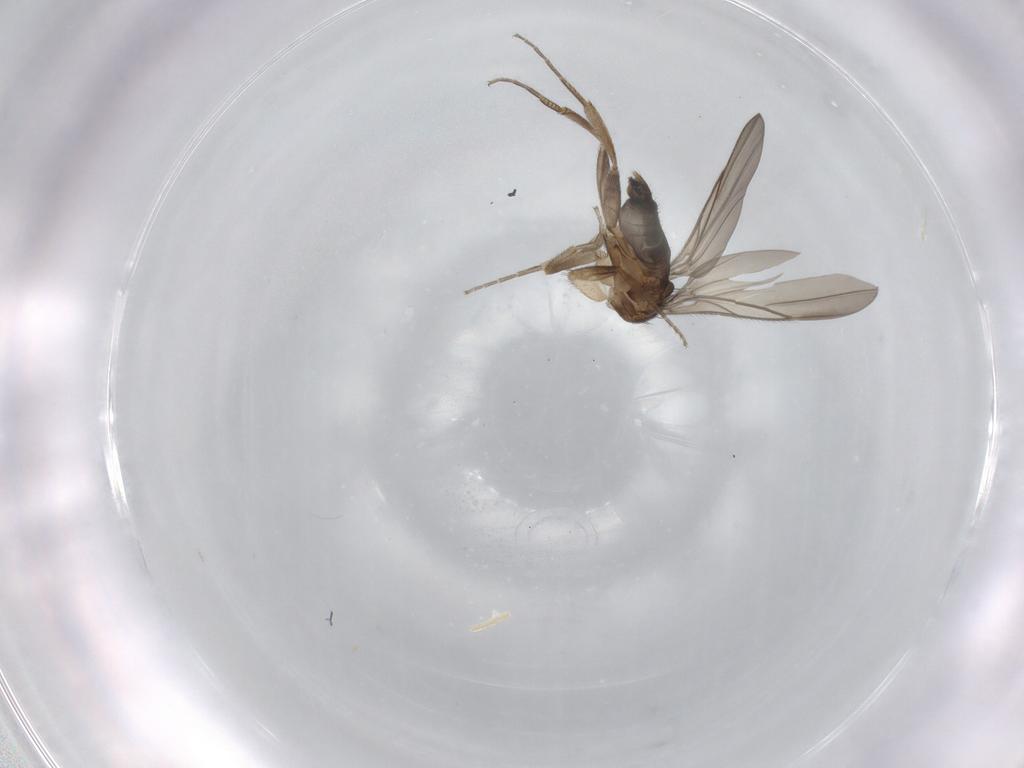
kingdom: Animalia
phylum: Arthropoda
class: Insecta
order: Diptera
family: Phoridae
